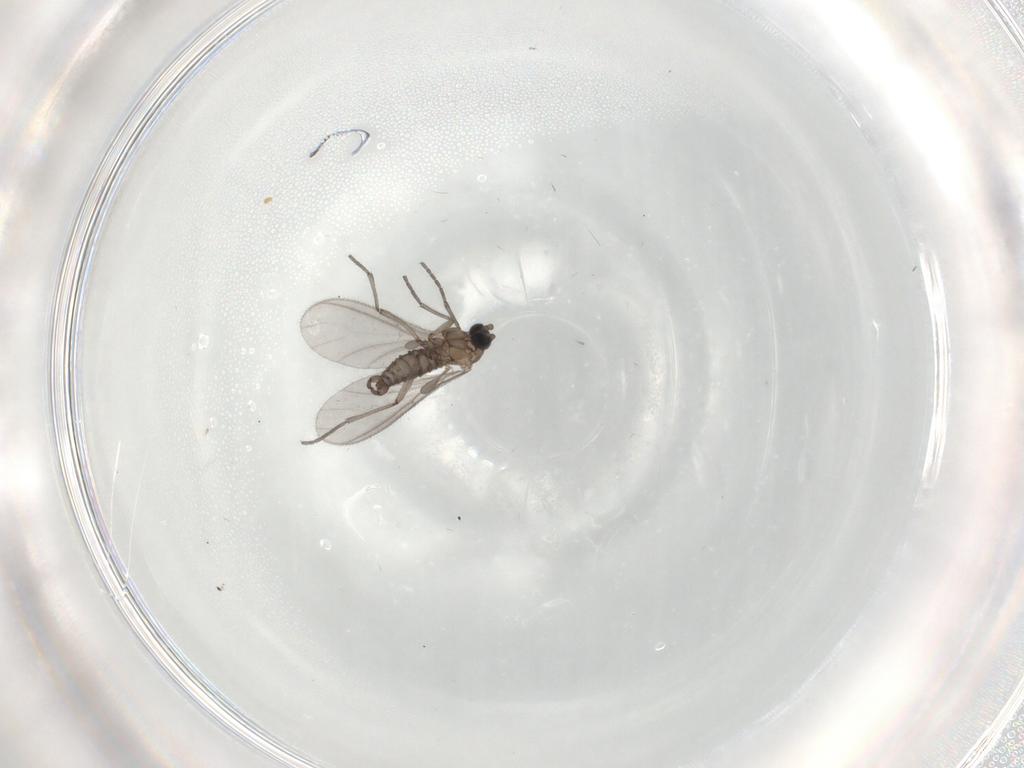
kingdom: Animalia
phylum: Arthropoda
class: Insecta
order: Diptera
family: Sciaridae
